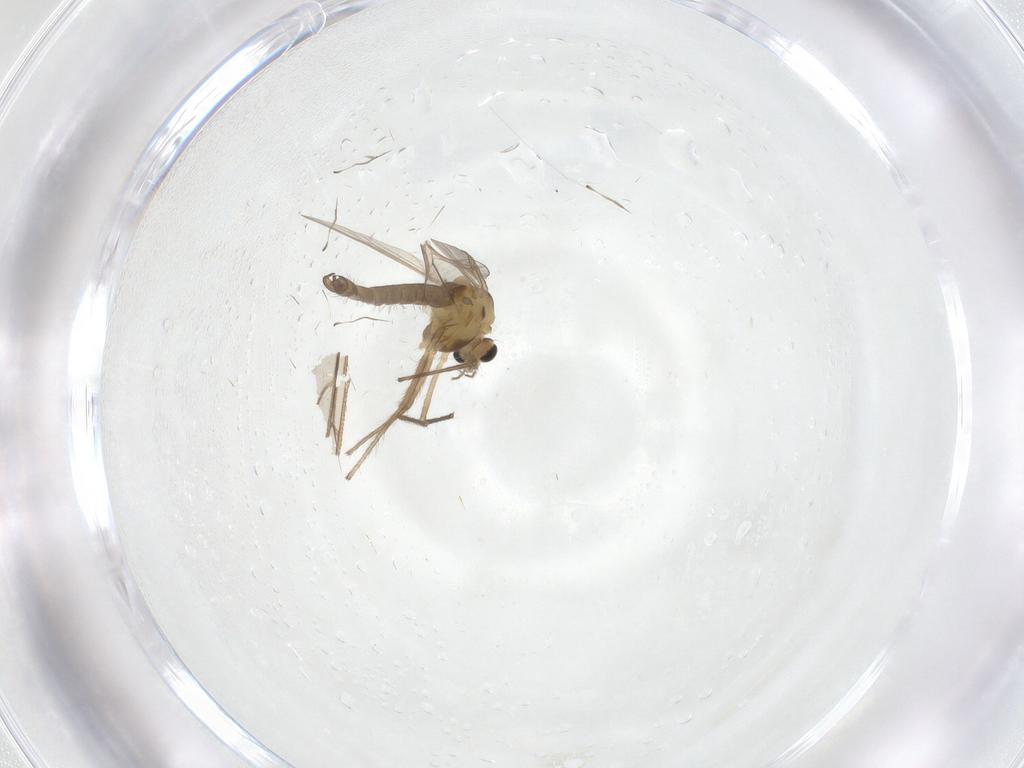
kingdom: Animalia
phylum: Arthropoda
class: Insecta
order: Diptera
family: Chironomidae
